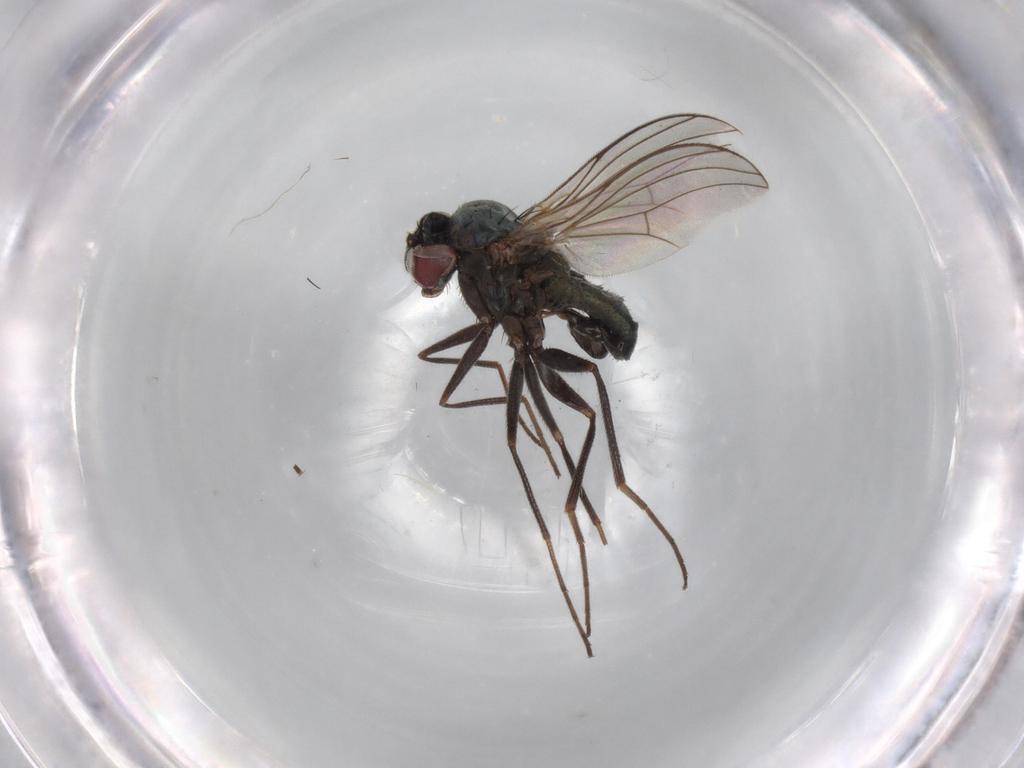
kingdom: Animalia
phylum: Arthropoda
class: Insecta
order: Diptera
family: Dolichopodidae
